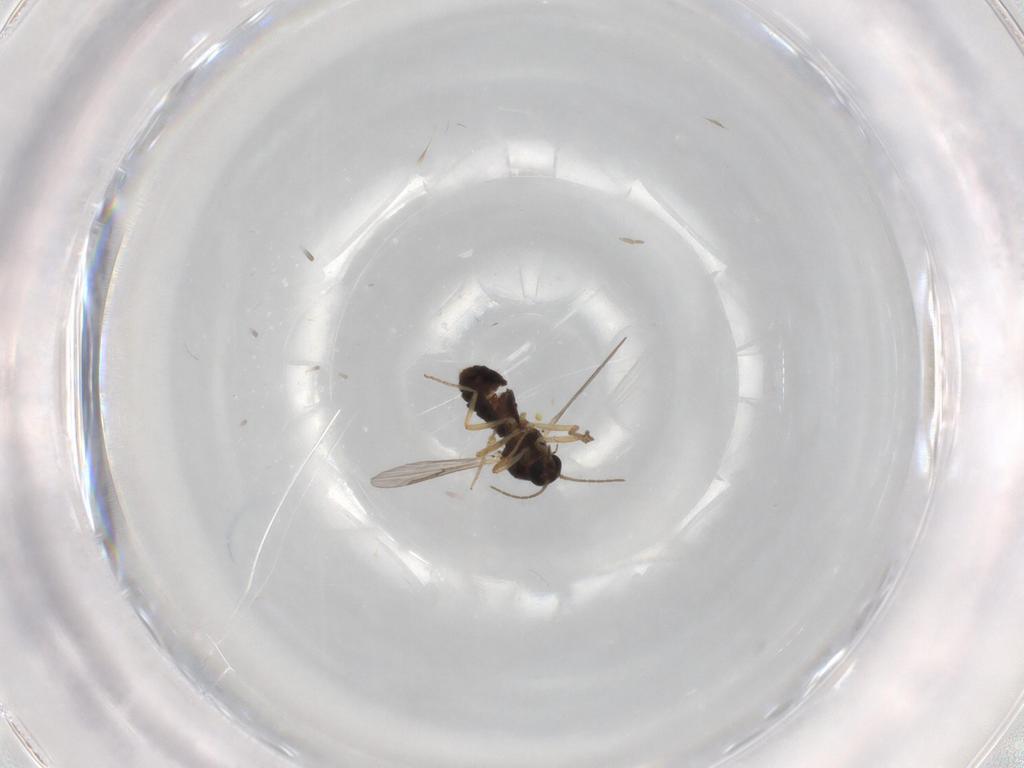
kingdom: Animalia
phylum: Arthropoda
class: Insecta
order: Diptera
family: Ceratopogonidae
